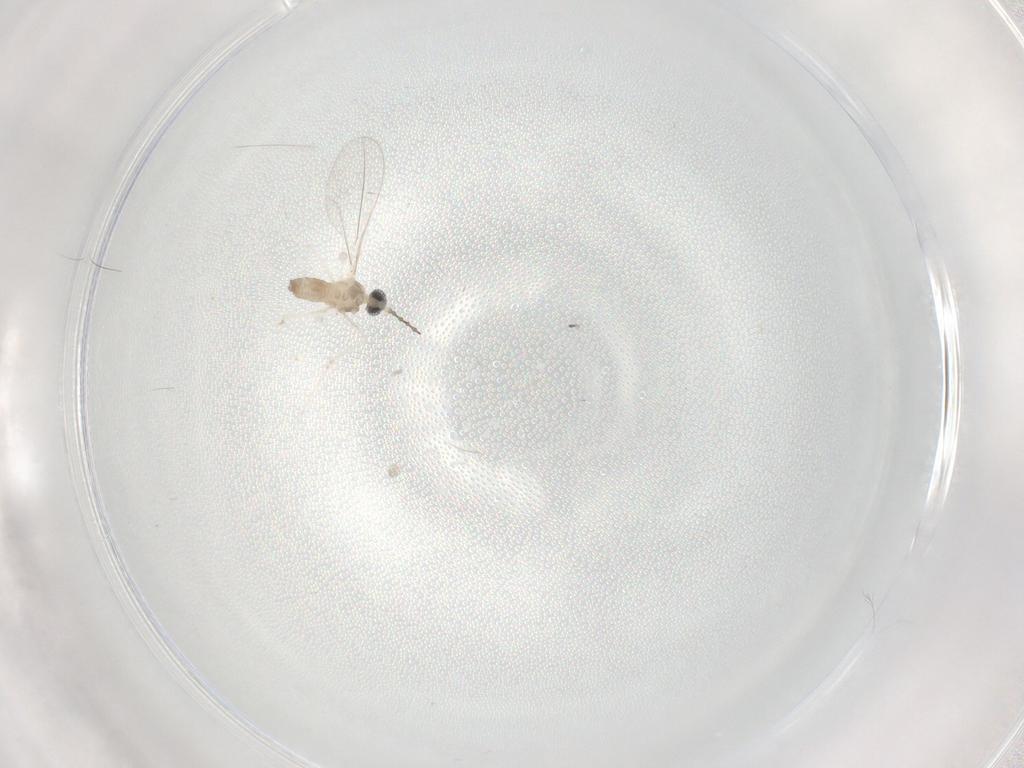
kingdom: Animalia
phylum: Arthropoda
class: Insecta
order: Diptera
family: Cecidomyiidae
